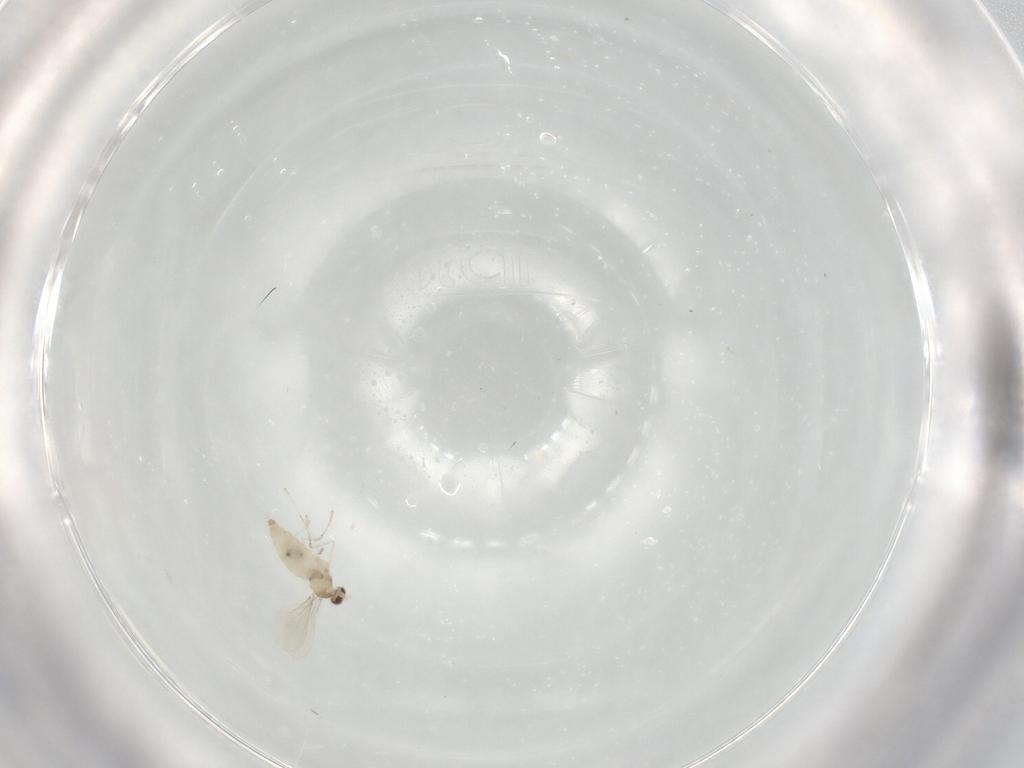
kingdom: Animalia
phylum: Arthropoda
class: Insecta
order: Diptera
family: Cecidomyiidae
